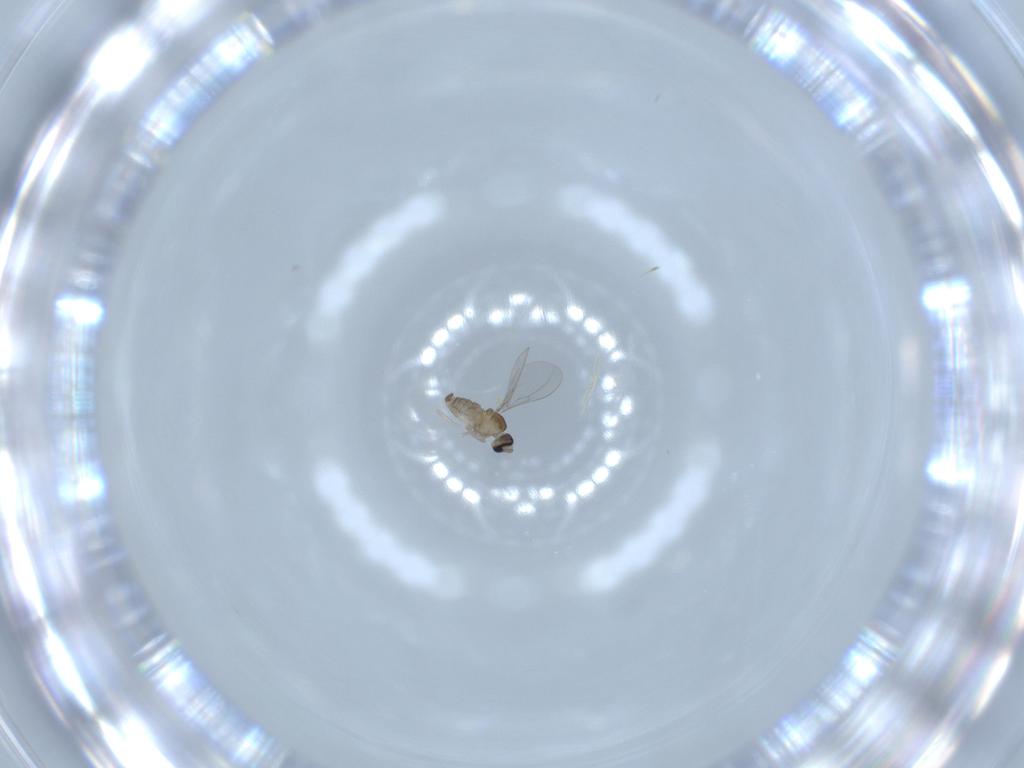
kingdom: Animalia
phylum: Arthropoda
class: Insecta
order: Diptera
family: Cecidomyiidae
